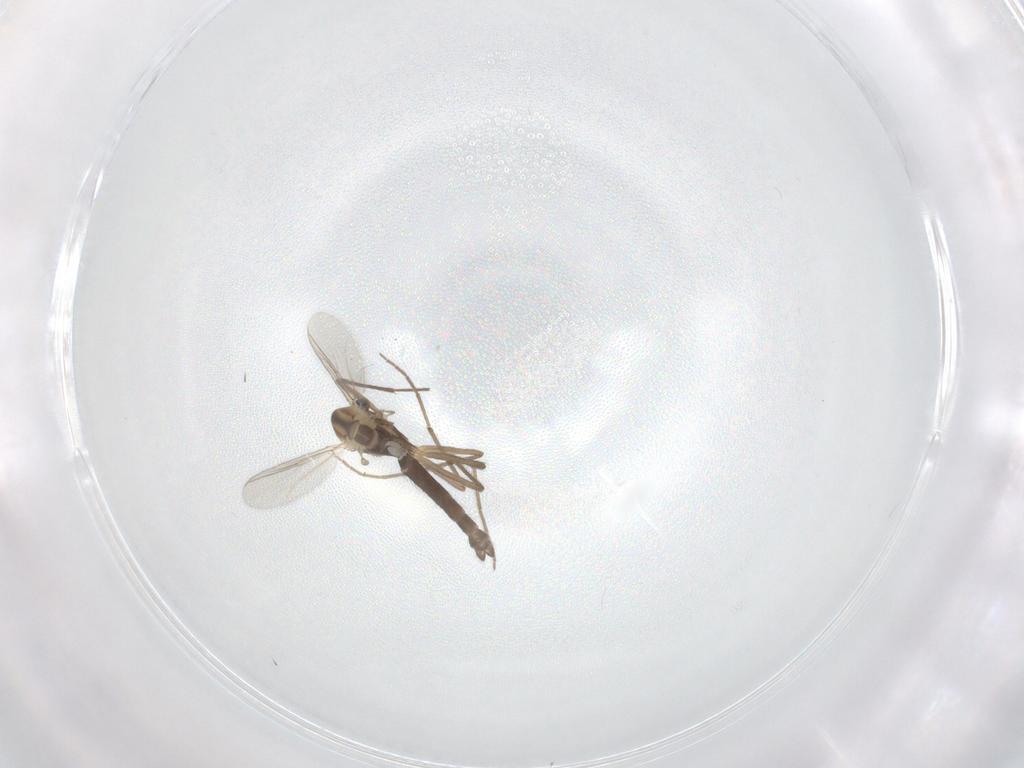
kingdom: Animalia
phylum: Arthropoda
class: Insecta
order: Diptera
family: Chironomidae
